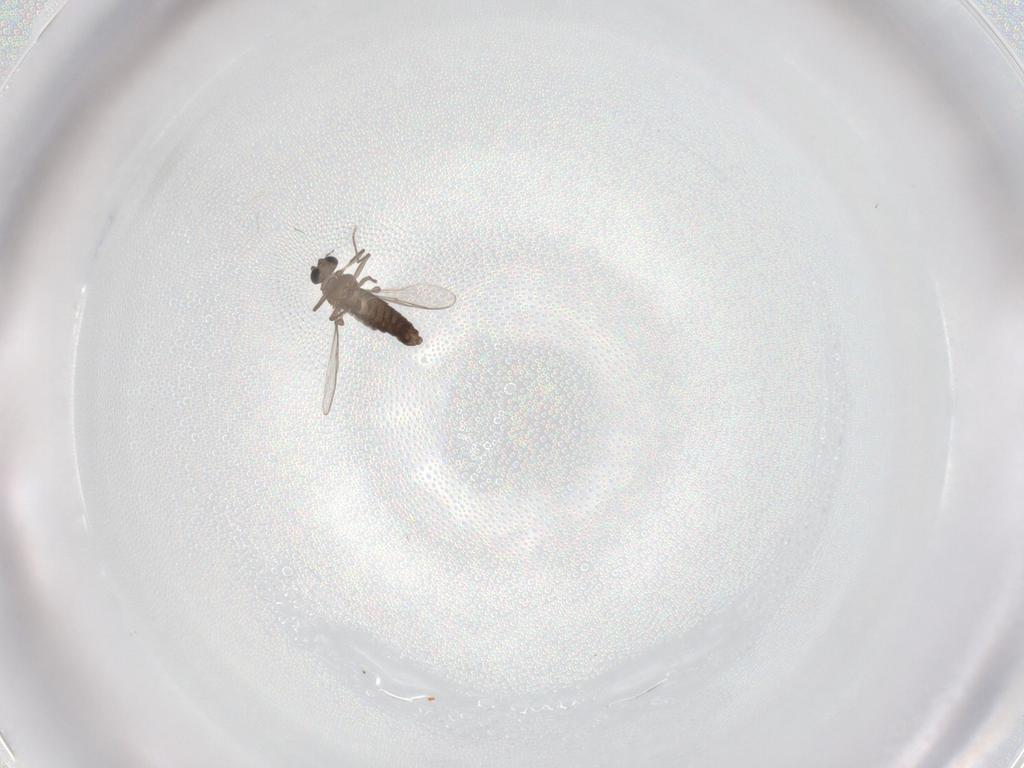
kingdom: Animalia
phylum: Arthropoda
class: Insecta
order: Diptera
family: Chironomidae
